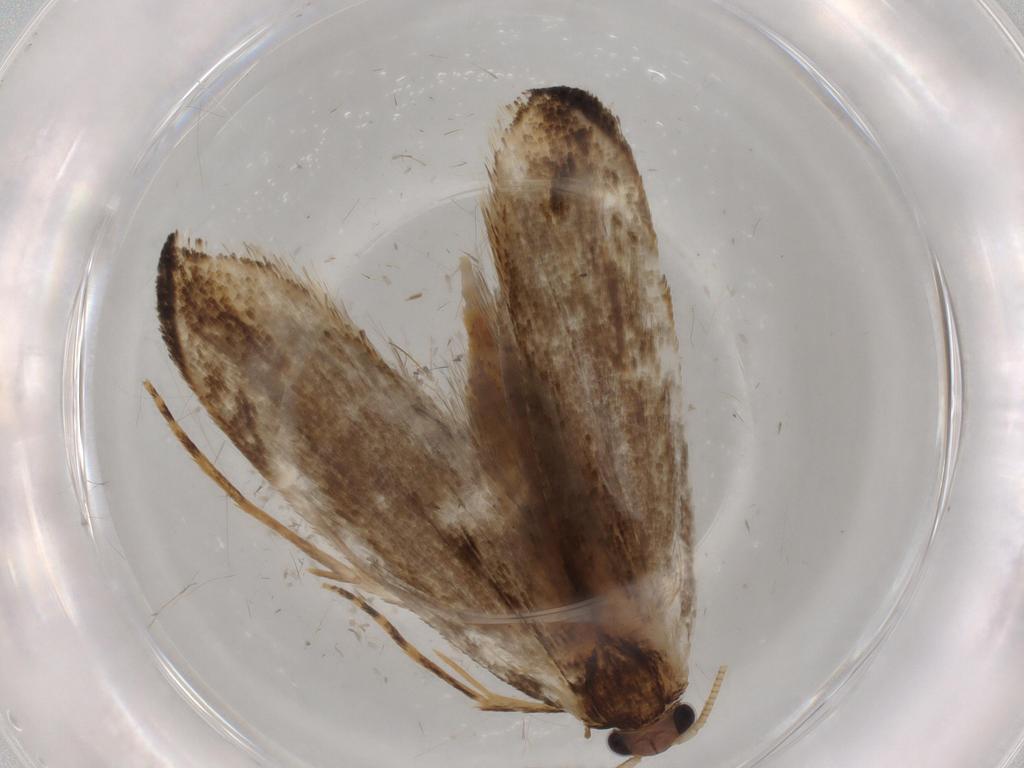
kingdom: Animalia
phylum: Arthropoda
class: Insecta
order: Lepidoptera
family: Tineidae
